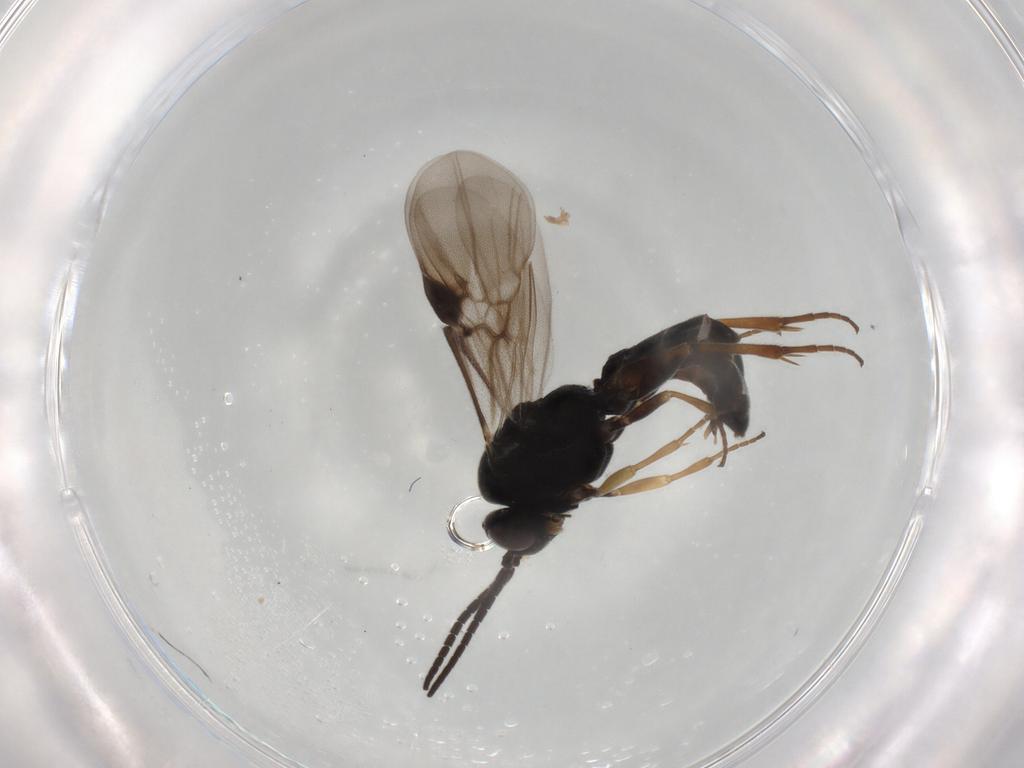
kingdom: Animalia
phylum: Arthropoda
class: Insecta
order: Hymenoptera
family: Braconidae
